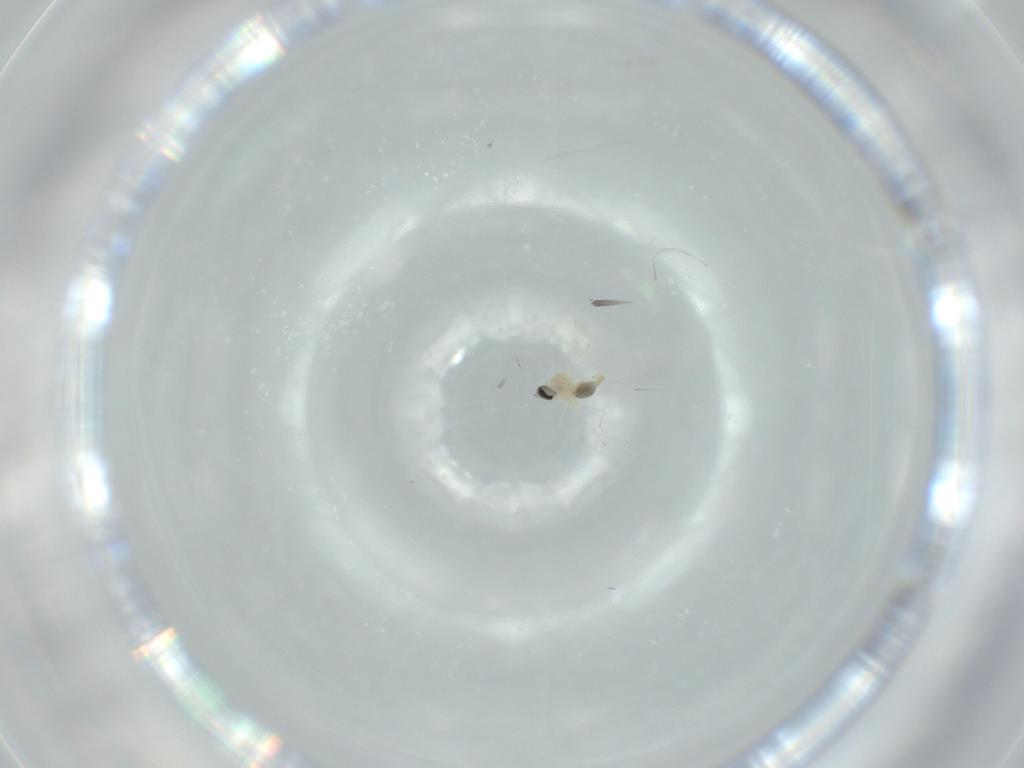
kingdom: Animalia
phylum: Arthropoda
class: Insecta
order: Diptera
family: Cecidomyiidae
